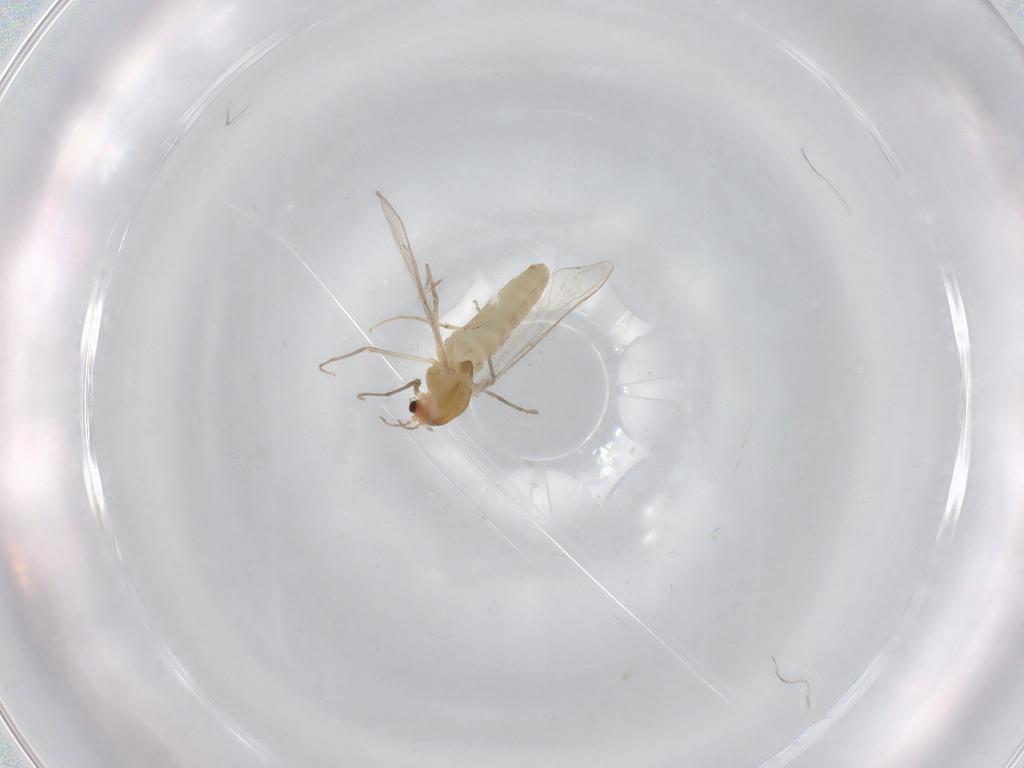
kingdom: Animalia
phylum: Arthropoda
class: Insecta
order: Diptera
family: Chironomidae
